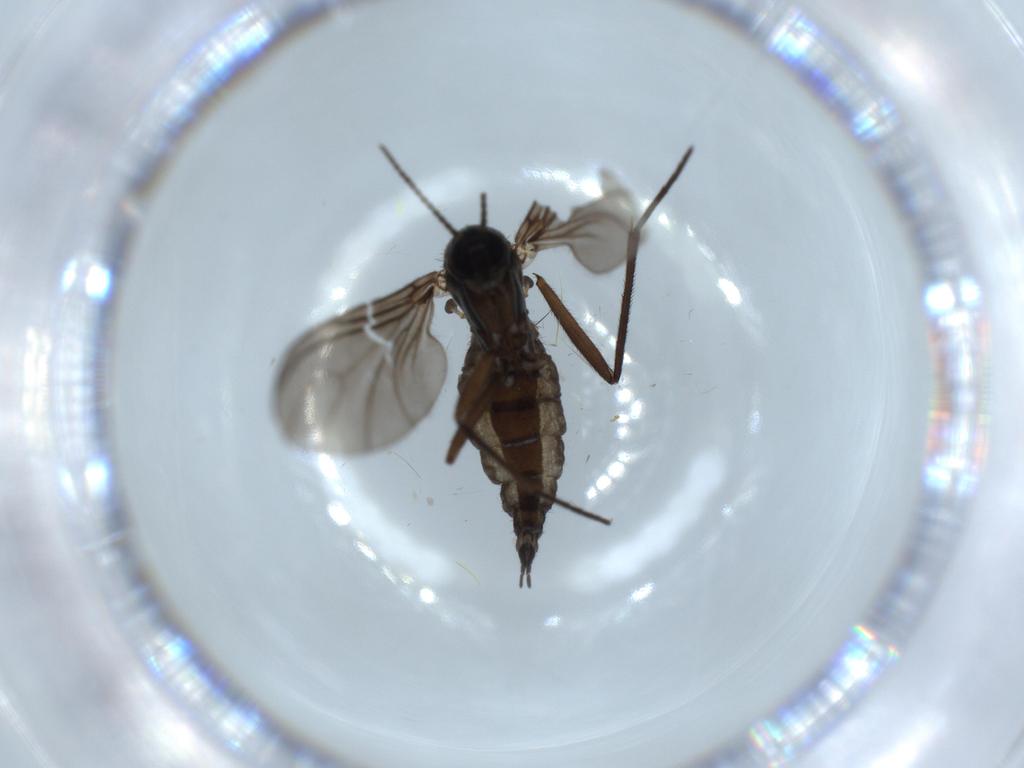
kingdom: Animalia
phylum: Arthropoda
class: Insecta
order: Diptera
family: Sciaridae
